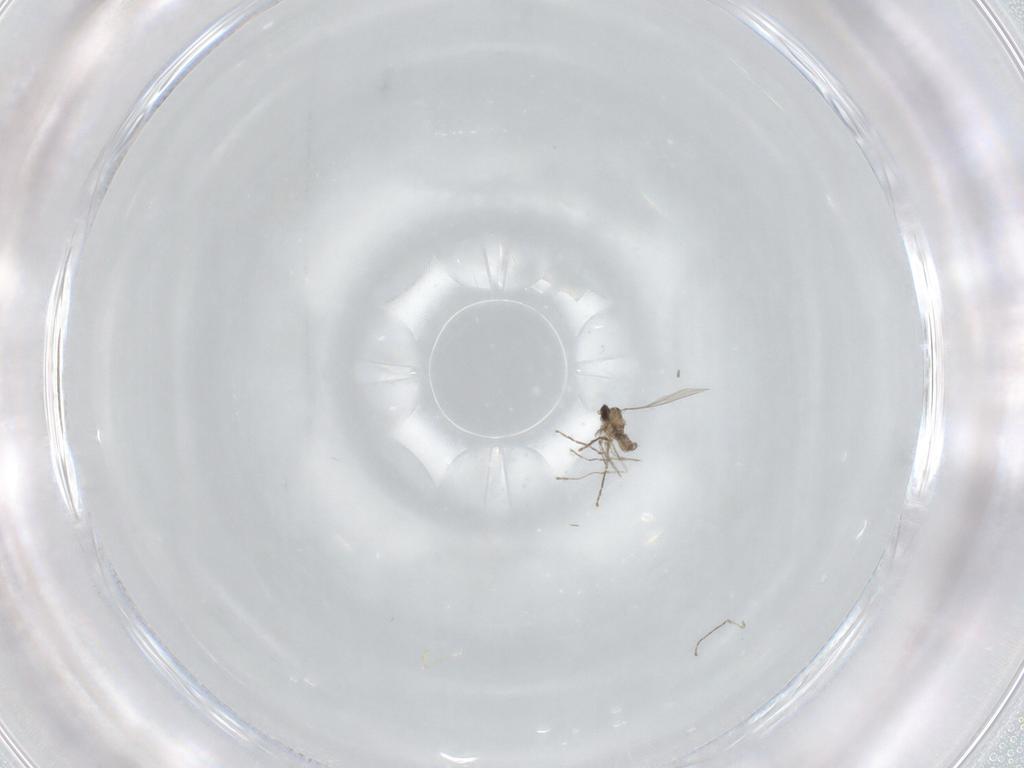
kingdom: Animalia
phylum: Arthropoda
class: Insecta
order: Diptera
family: Cecidomyiidae
